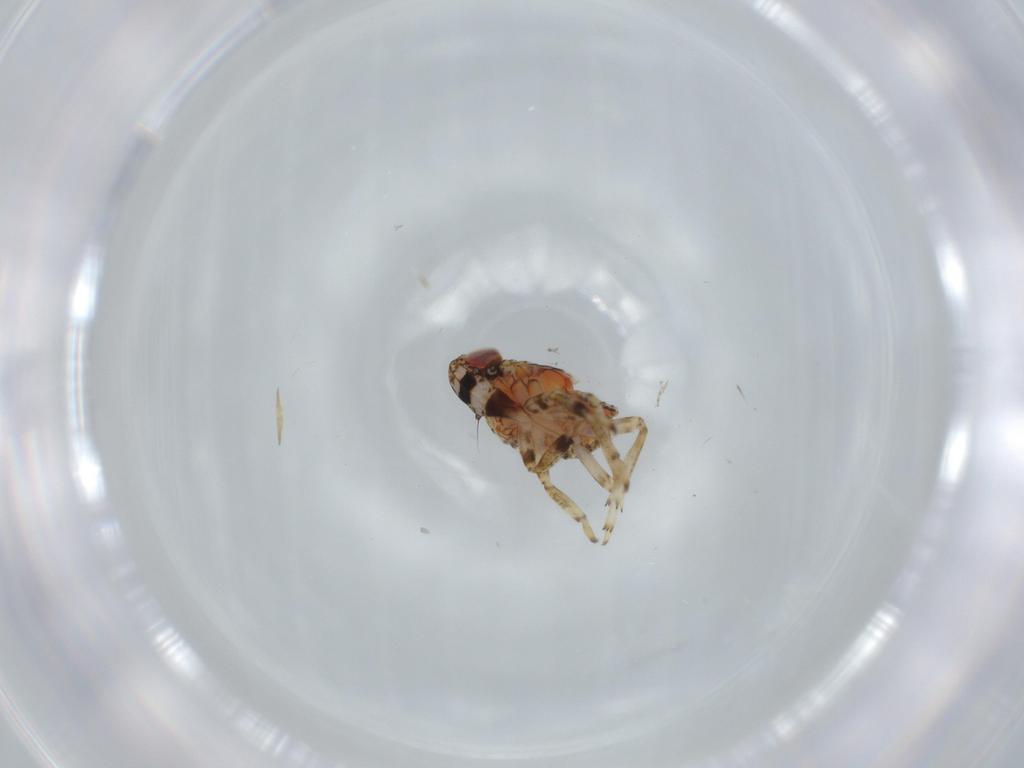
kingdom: Animalia
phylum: Arthropoda
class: Insecta
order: Hemiptera
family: Issidae
